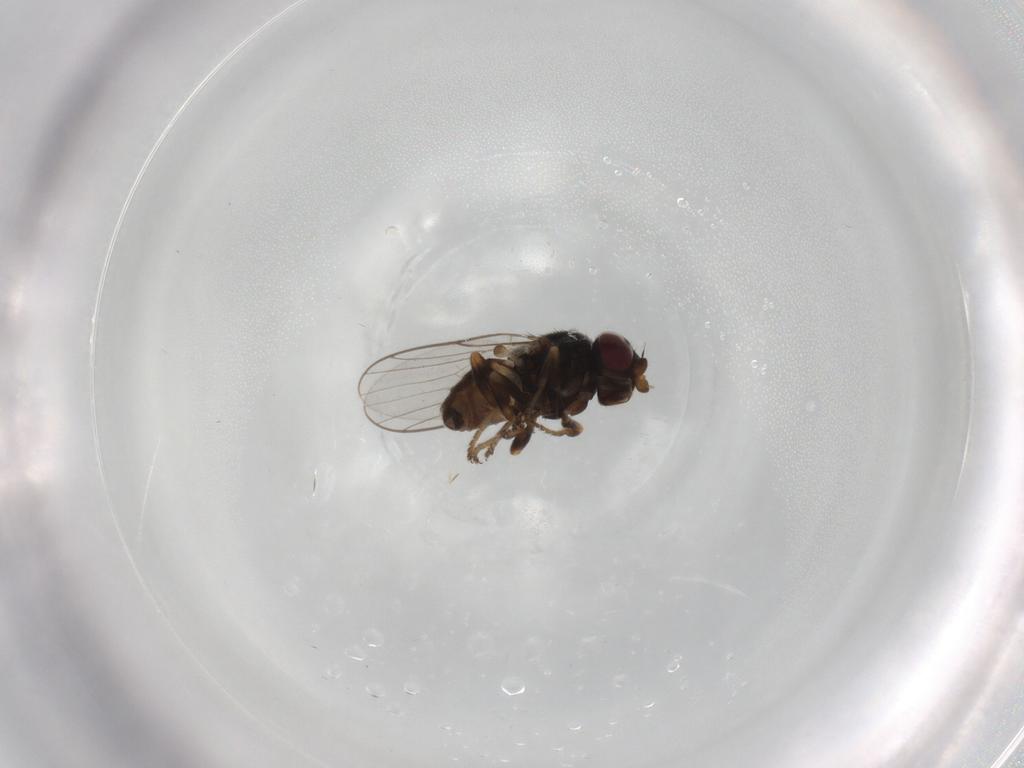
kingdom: Animalia
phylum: Arthropoda
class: Insecta
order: Diptera
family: Chloropidae
